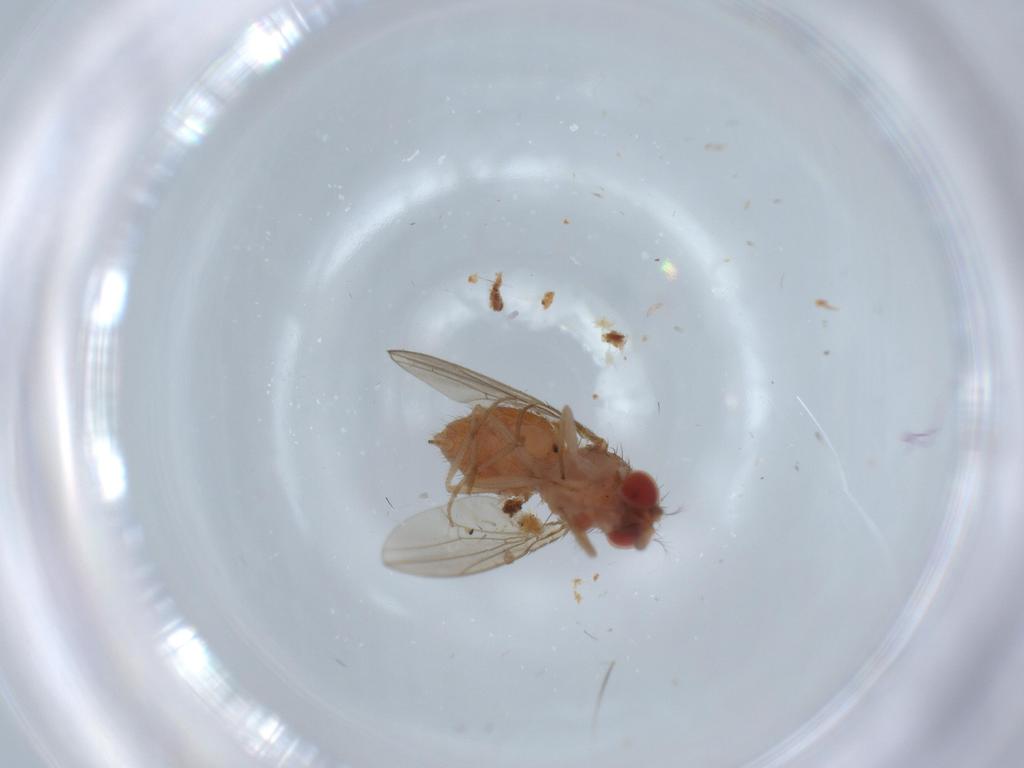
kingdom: Animalia
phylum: Arthropoda
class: Insecta
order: Diptera
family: Drosophilidae
